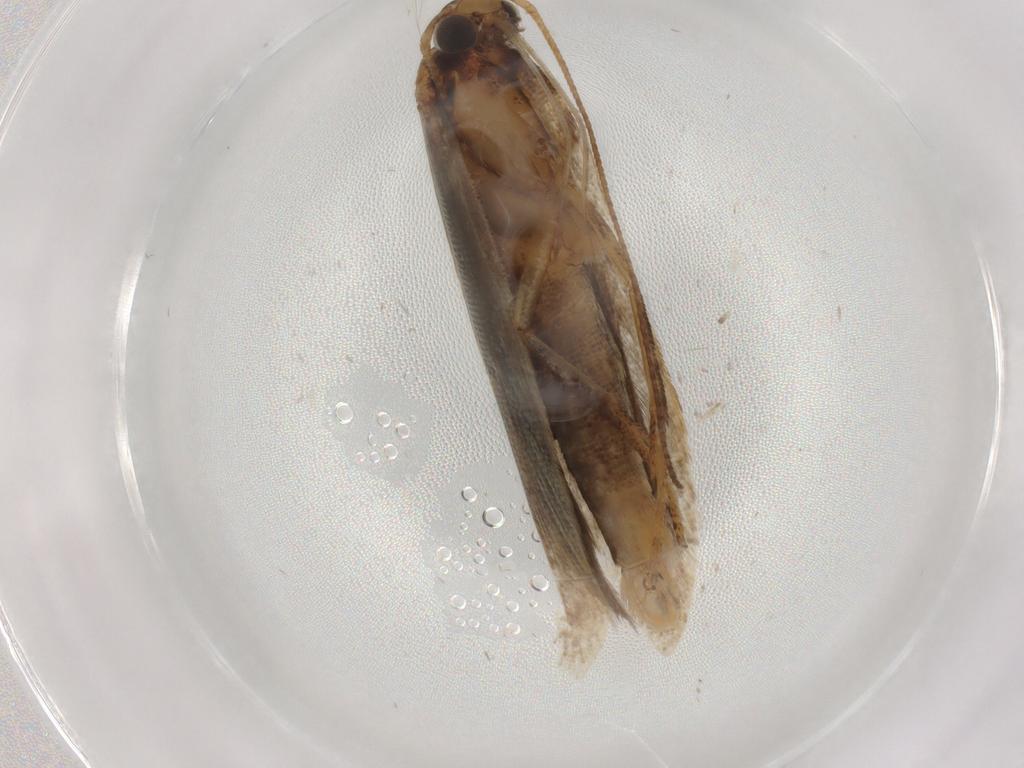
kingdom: Animalia
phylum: Arthropoda
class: Insecta
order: Lepidoptera
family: Gelechiidae
